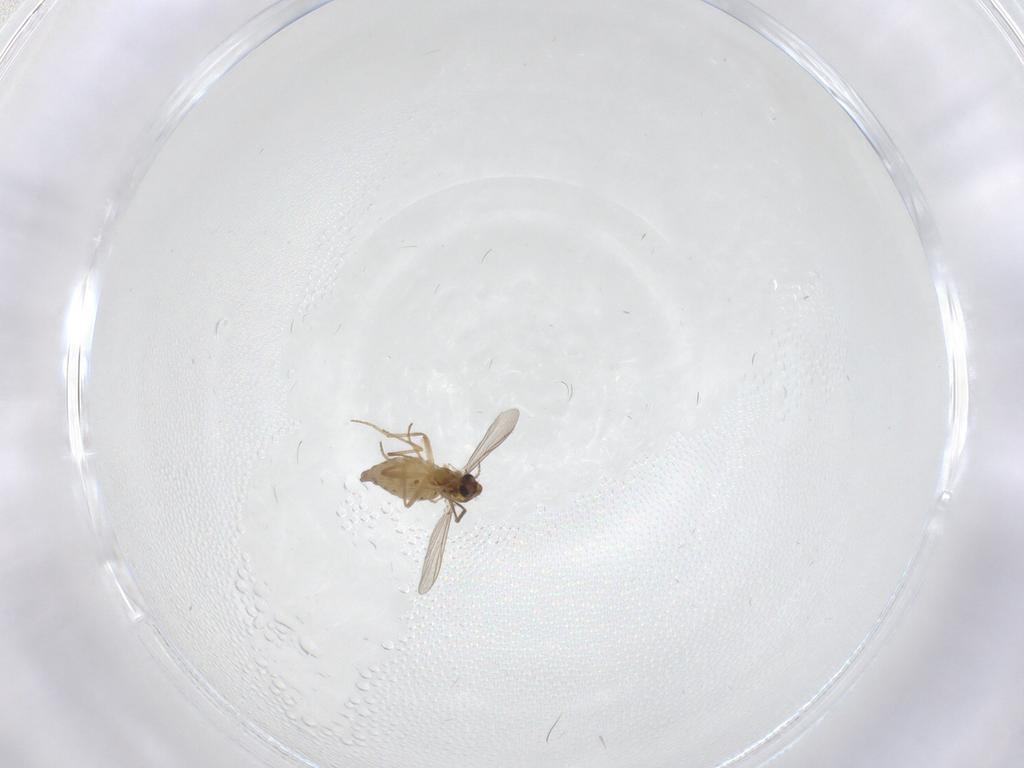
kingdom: Animalia
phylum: Arthropoda
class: Insecta
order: Diptera
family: Chironomidae
